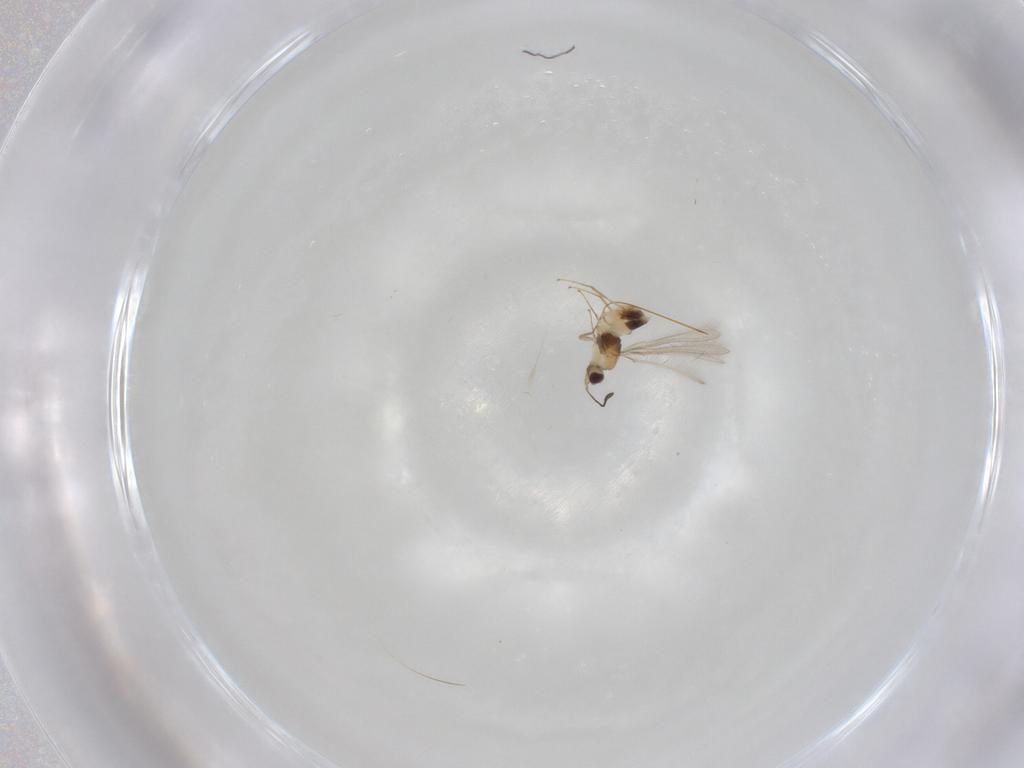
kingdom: Animalia
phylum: Arthropoda
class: Insecta
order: Hymenoptera
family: Mymaridae
